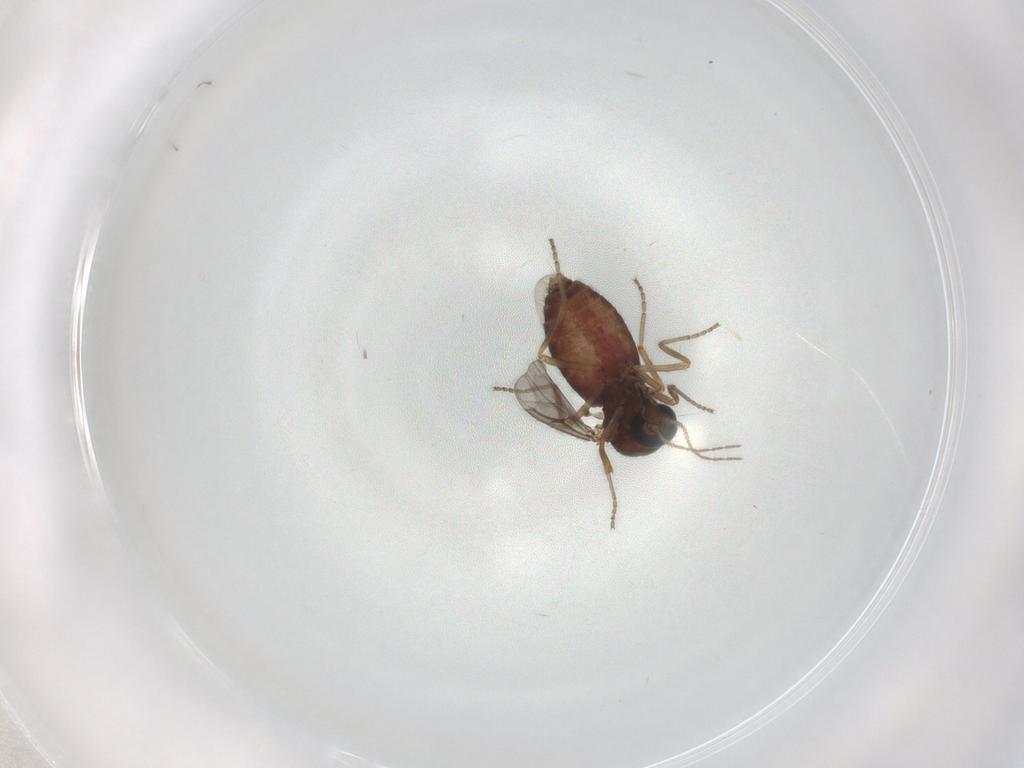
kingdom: Animalia
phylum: Arthropoda
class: Insecta
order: Diptera
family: Ceratopogonidae
